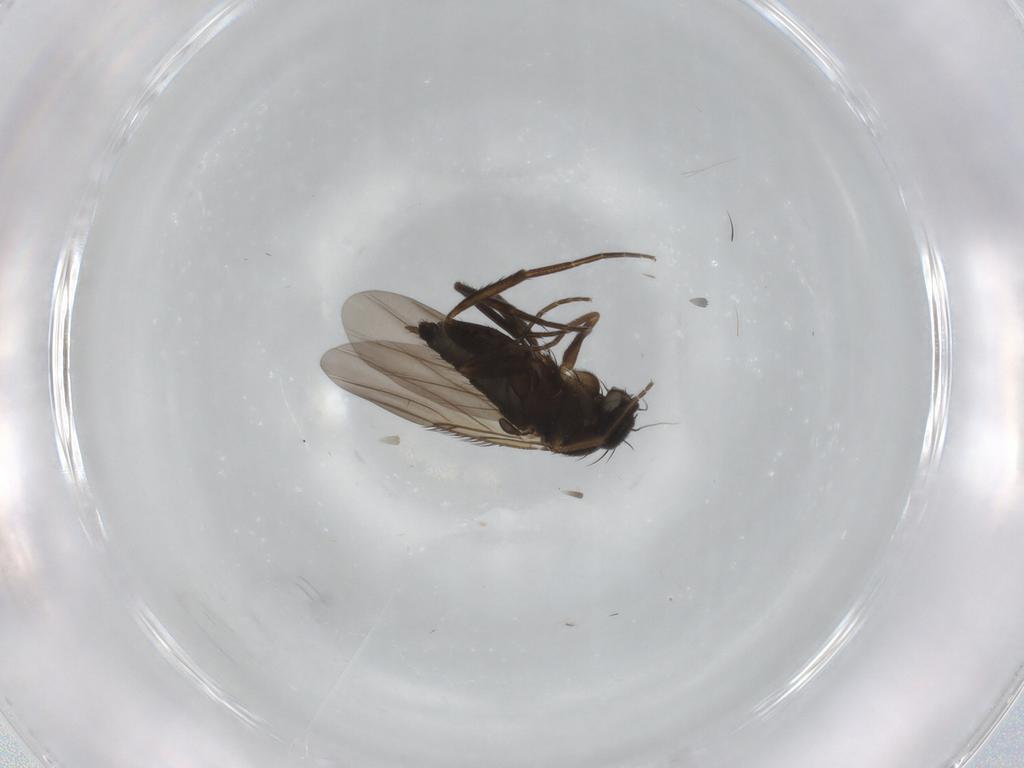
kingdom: Animalia
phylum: Arthropoda
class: Insecta
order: Diptera
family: Phoridae
